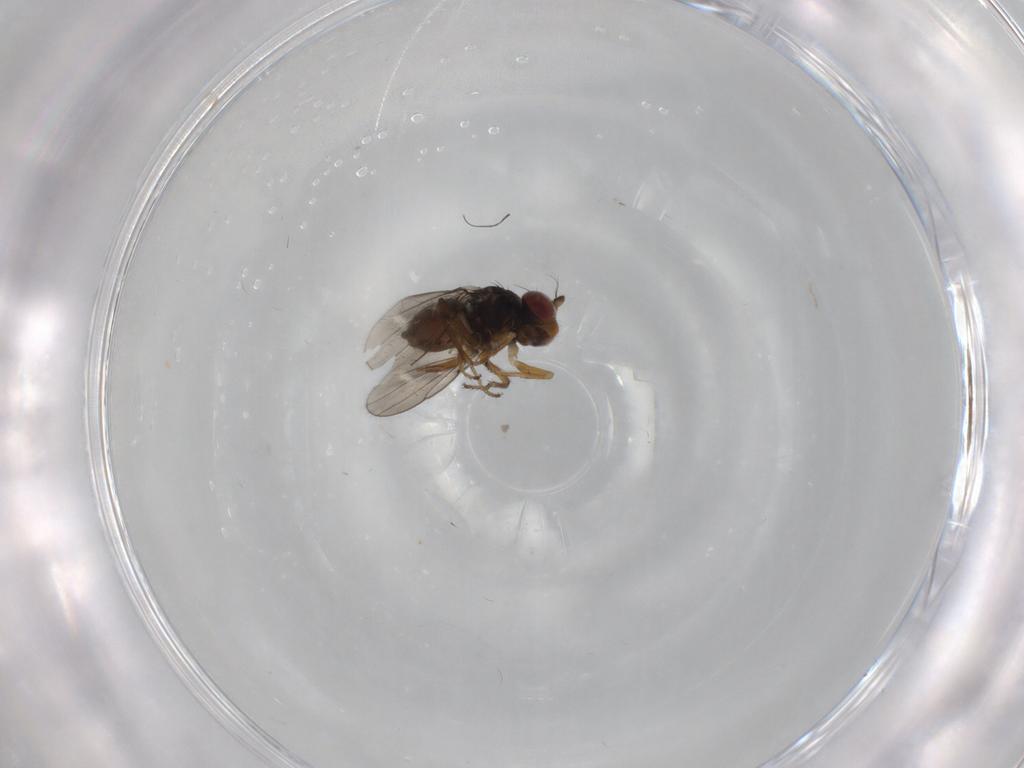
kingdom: Animalia
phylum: Arthropoda
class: Insecta
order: Diptera
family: Ephydridae
